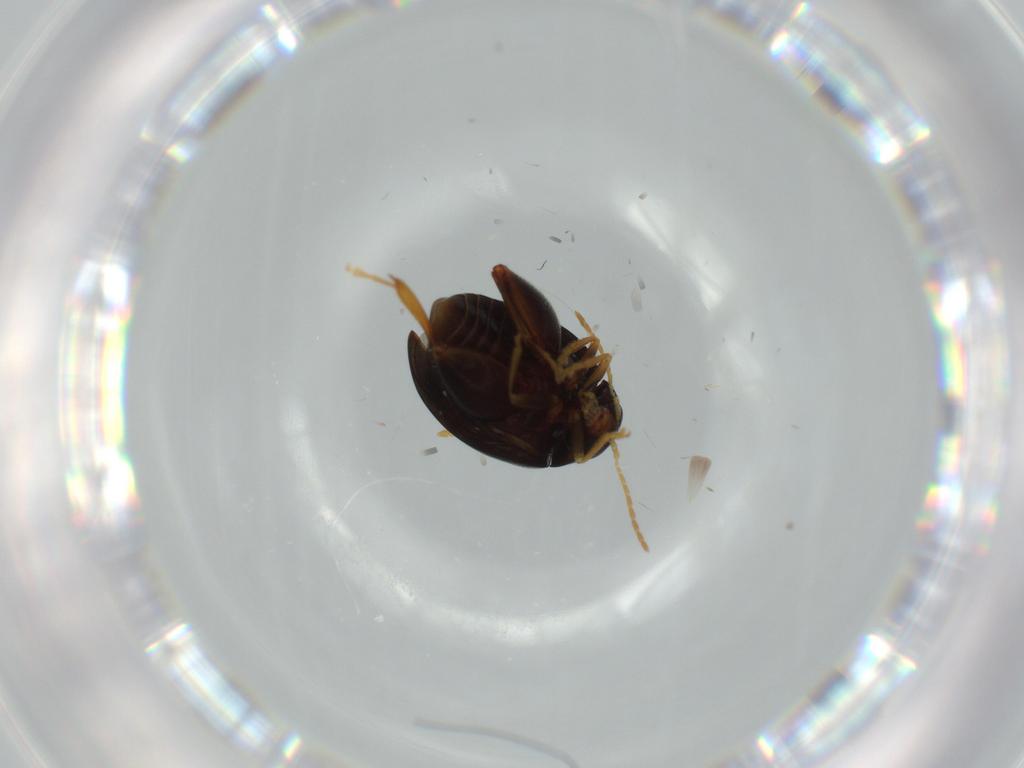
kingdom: Animalia
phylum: Arthropoda
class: Insecta
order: Coleoptera
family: Chrysomelidae
